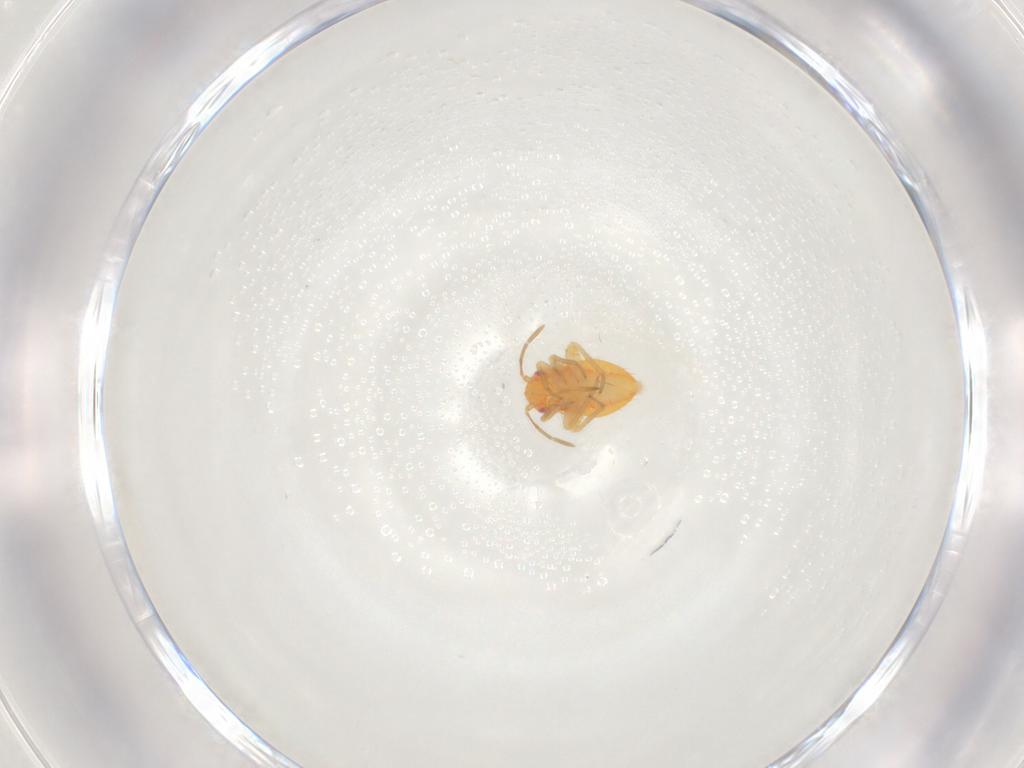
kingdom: Animalia
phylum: Arthropoda
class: Insecta
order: Hemiptera
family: Miridae
